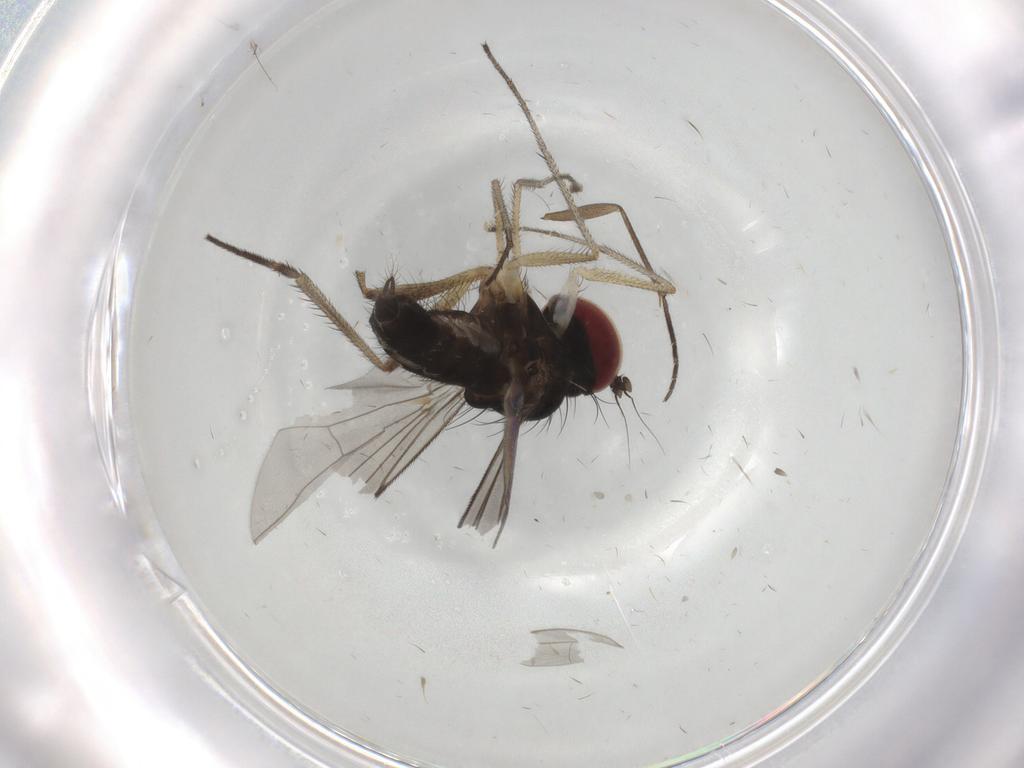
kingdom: Animalia
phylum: Arthropoda
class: Insecta
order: Diptera
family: Dolichopodidae
